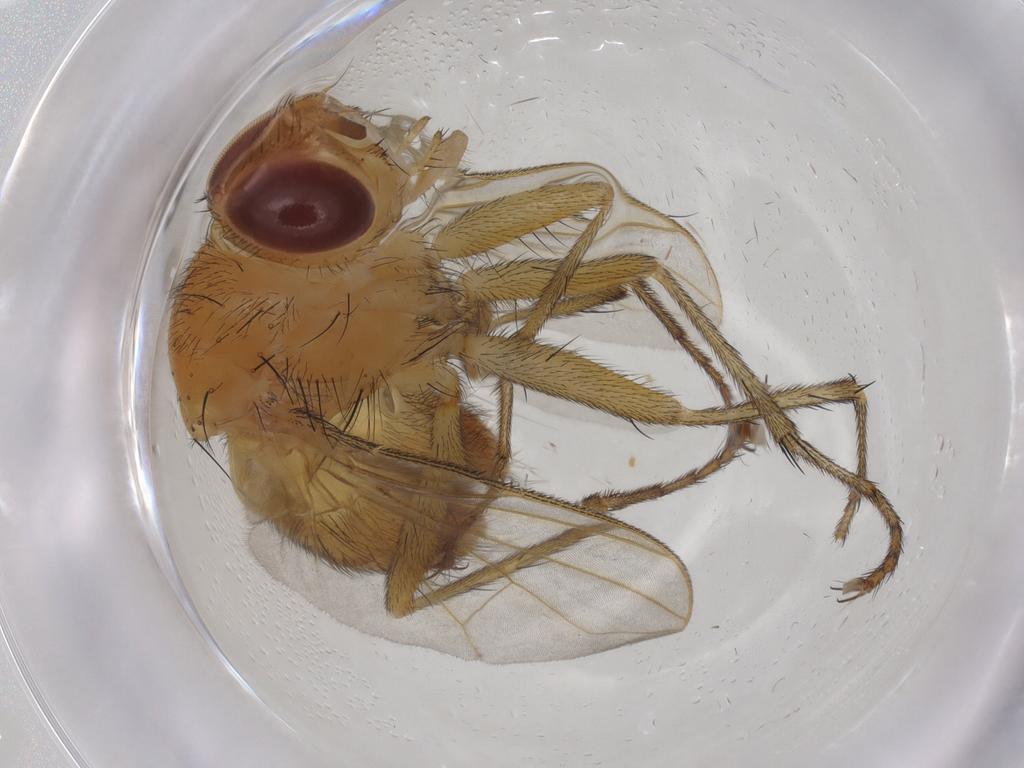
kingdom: Animalia
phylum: Arthropoda
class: Insecta
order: Diptera
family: Tachinidae
